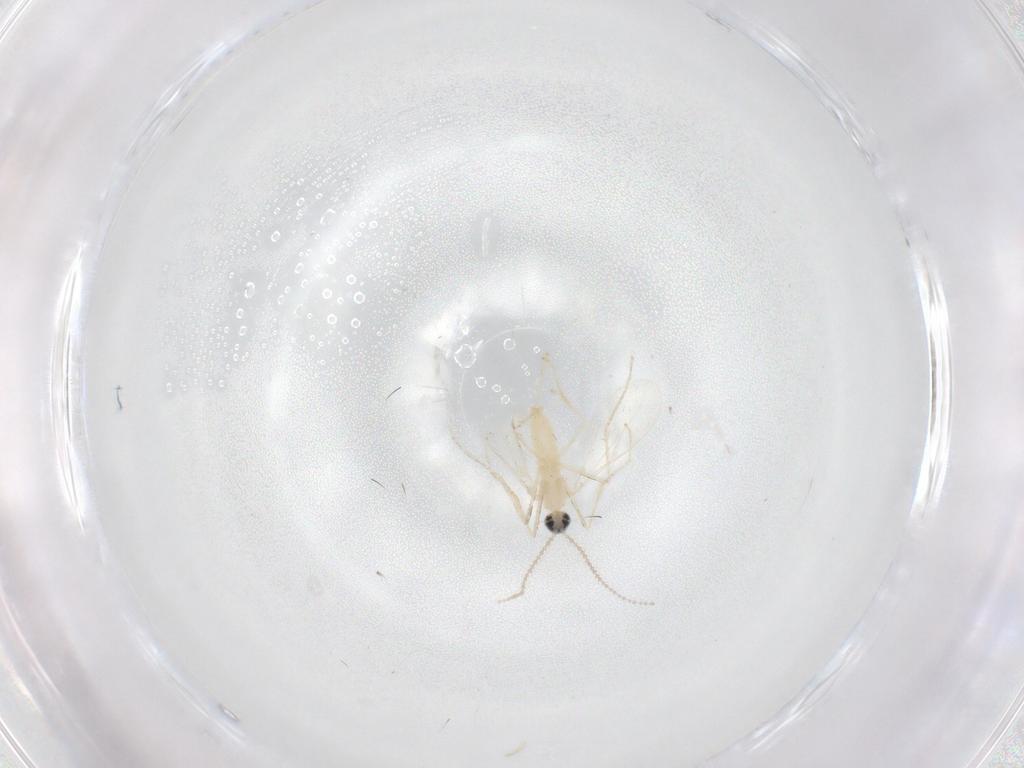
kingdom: Animalia
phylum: Arthropoda
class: Insecta
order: Diptera
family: Cecidomyiidae
